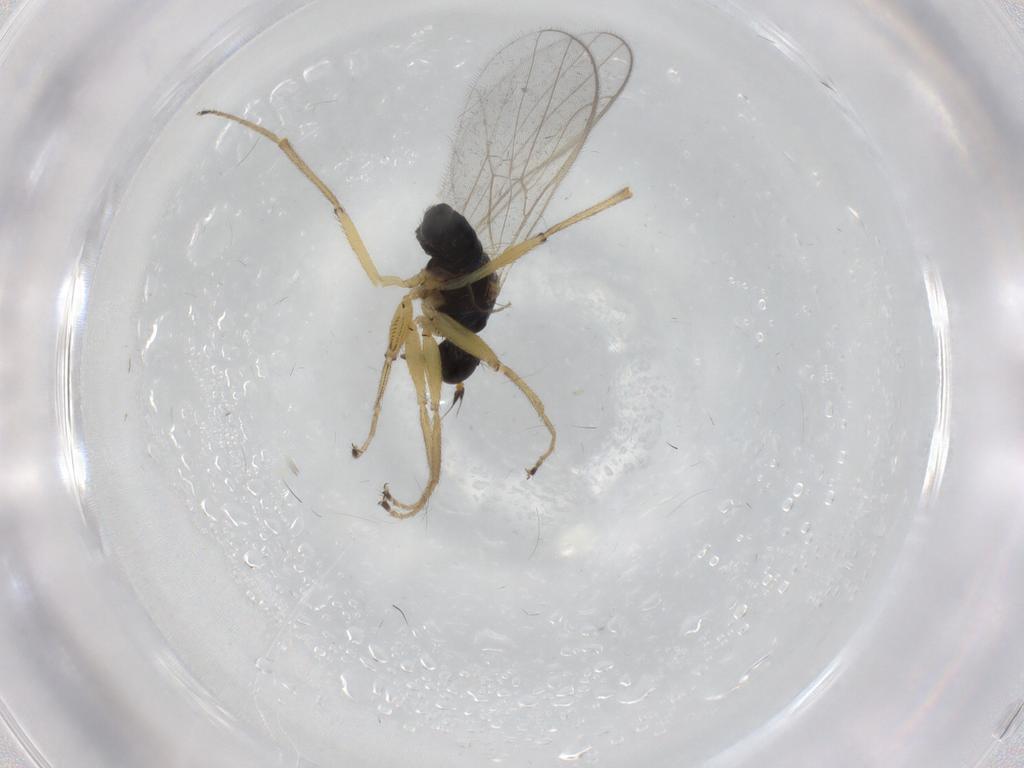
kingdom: Animalia
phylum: Arthropoda
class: Insecta
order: Diptera
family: Hybotidae
